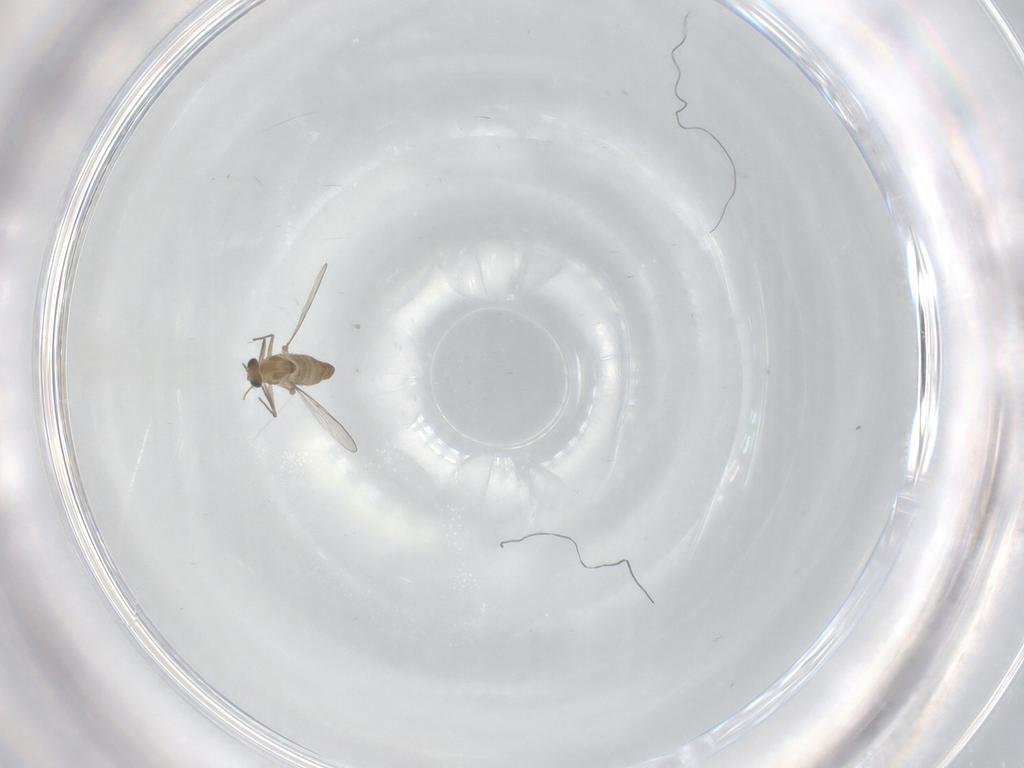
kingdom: Animalia
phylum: Arthropoda
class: Insecta
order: Diptera
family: Chironomidae
